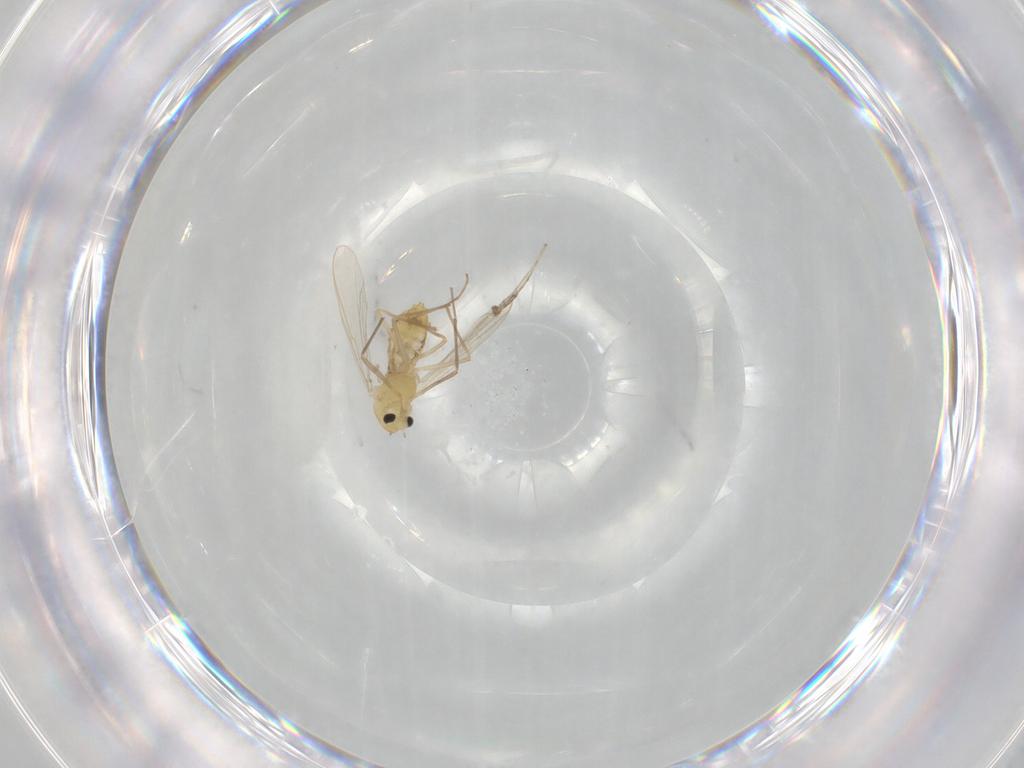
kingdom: Animalia
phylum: Arthropoda
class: Insecta
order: Diptera
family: Chironomidae
